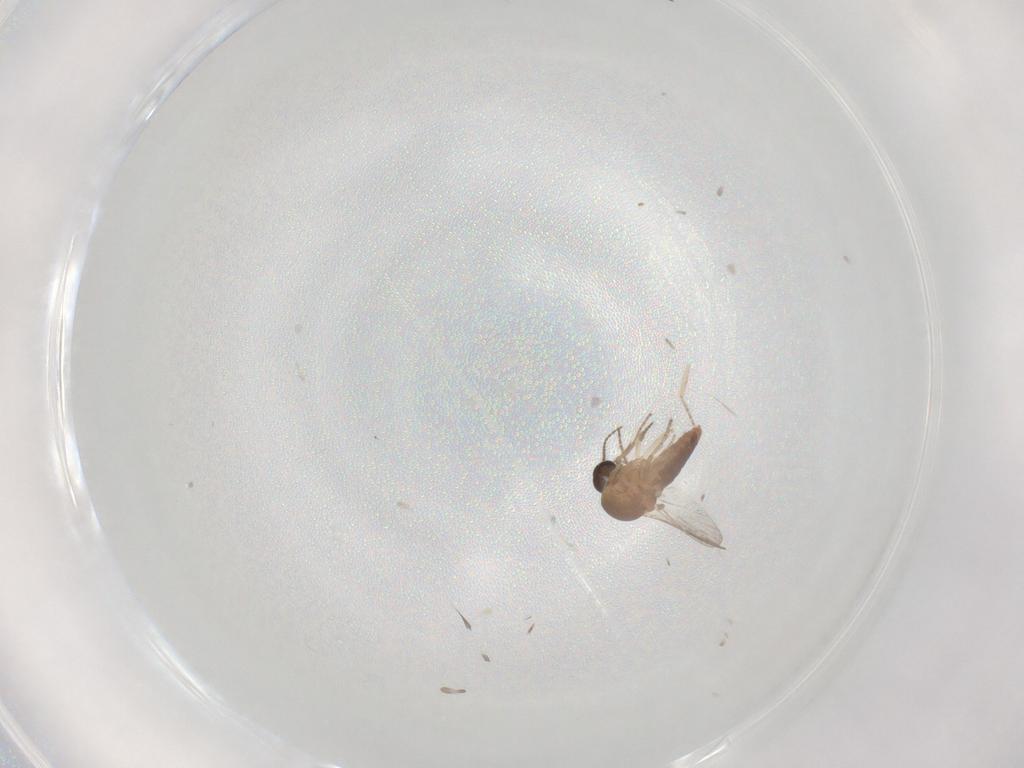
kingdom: Animalia
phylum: Arthropoda
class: Insecta
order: Diptera
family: Ceratopogonidae
